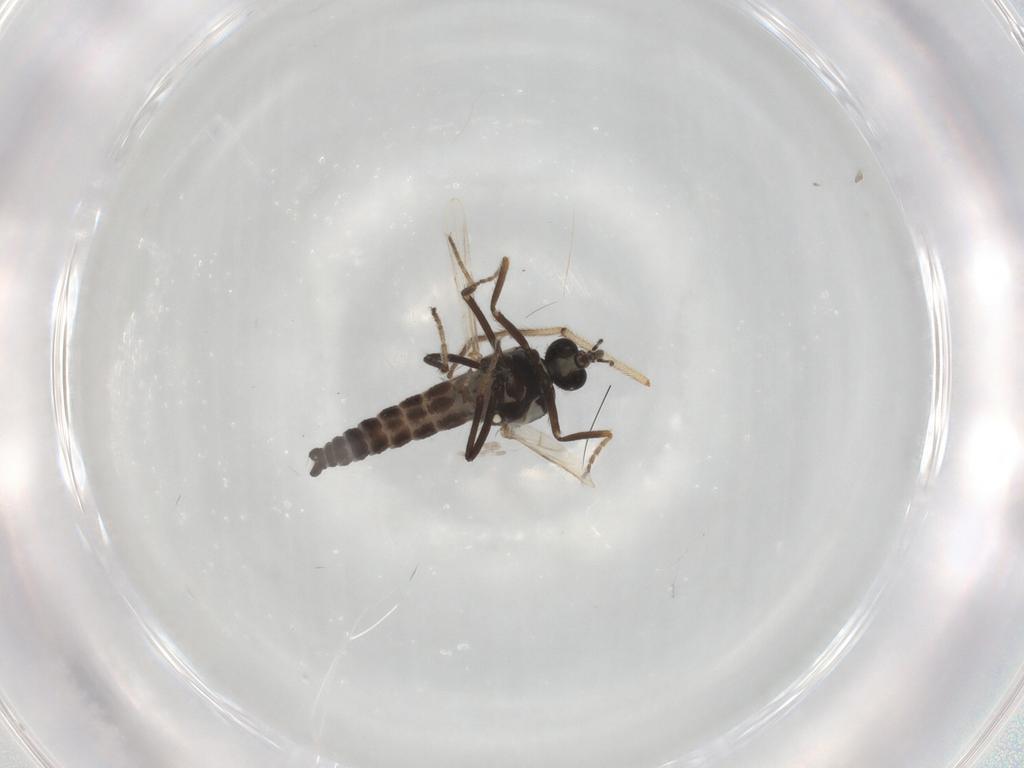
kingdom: Animalia
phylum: Arthropoda
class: Insecta
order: Diptera
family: Ceratopogonidae
